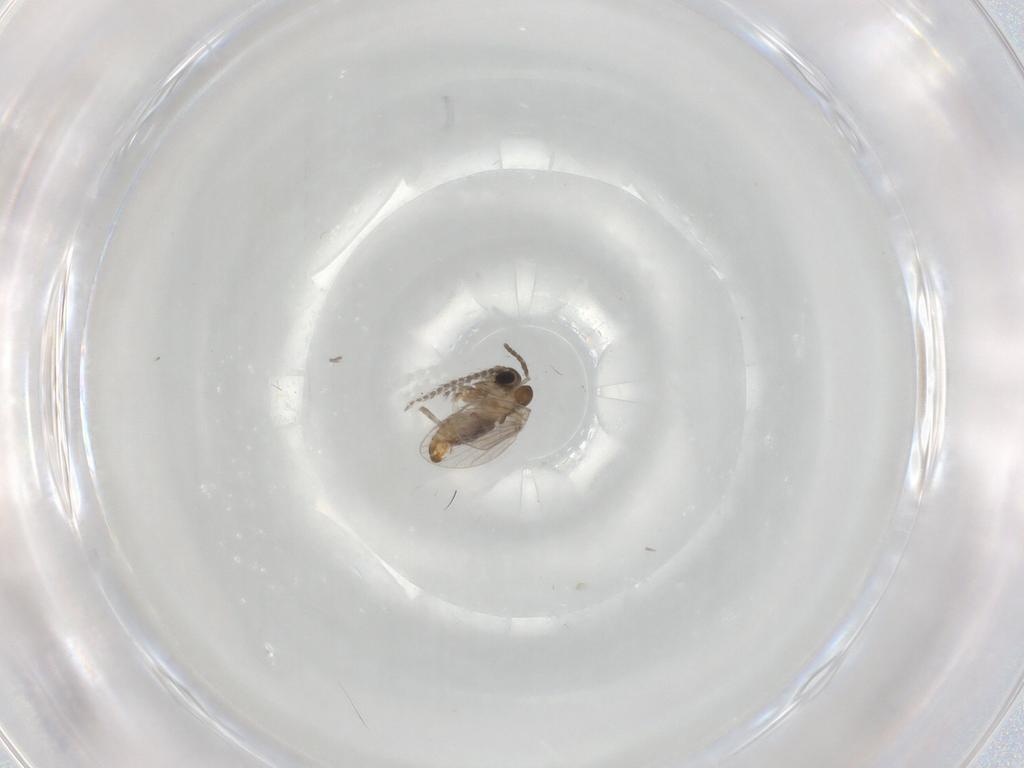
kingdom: Animalia
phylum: Arthropoda
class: Insecta
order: Diptera
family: Psychodidae
